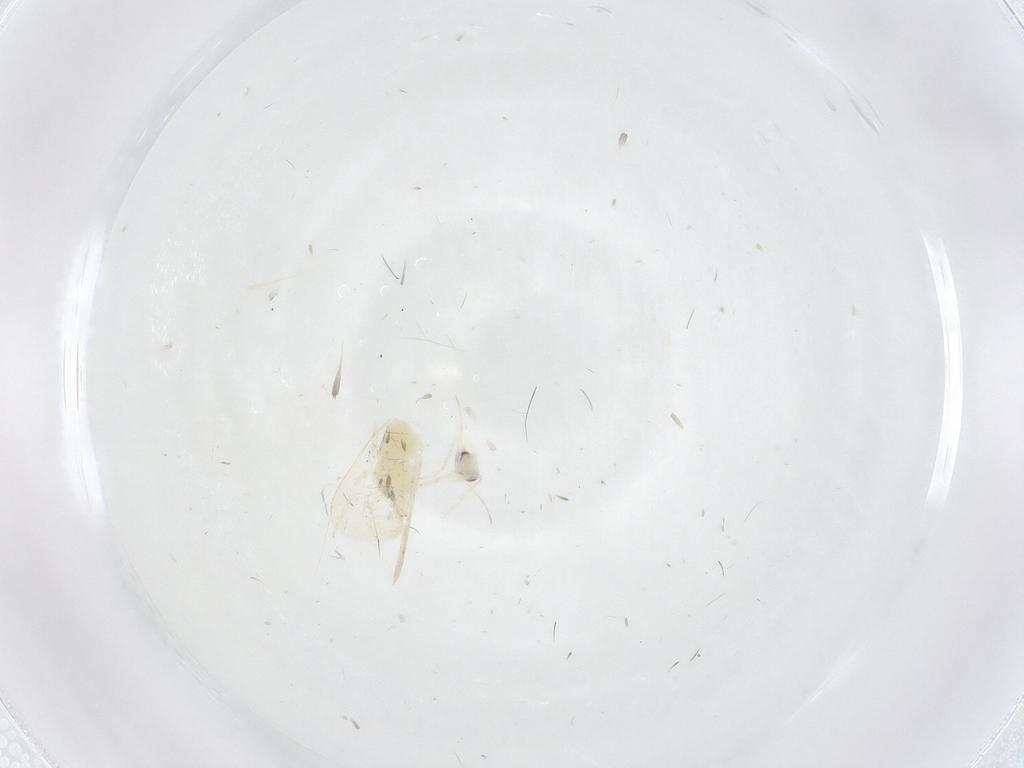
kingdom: Animalia
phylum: Arthropoda
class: Insecta
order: Hemiptera
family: Aleyrodidae
